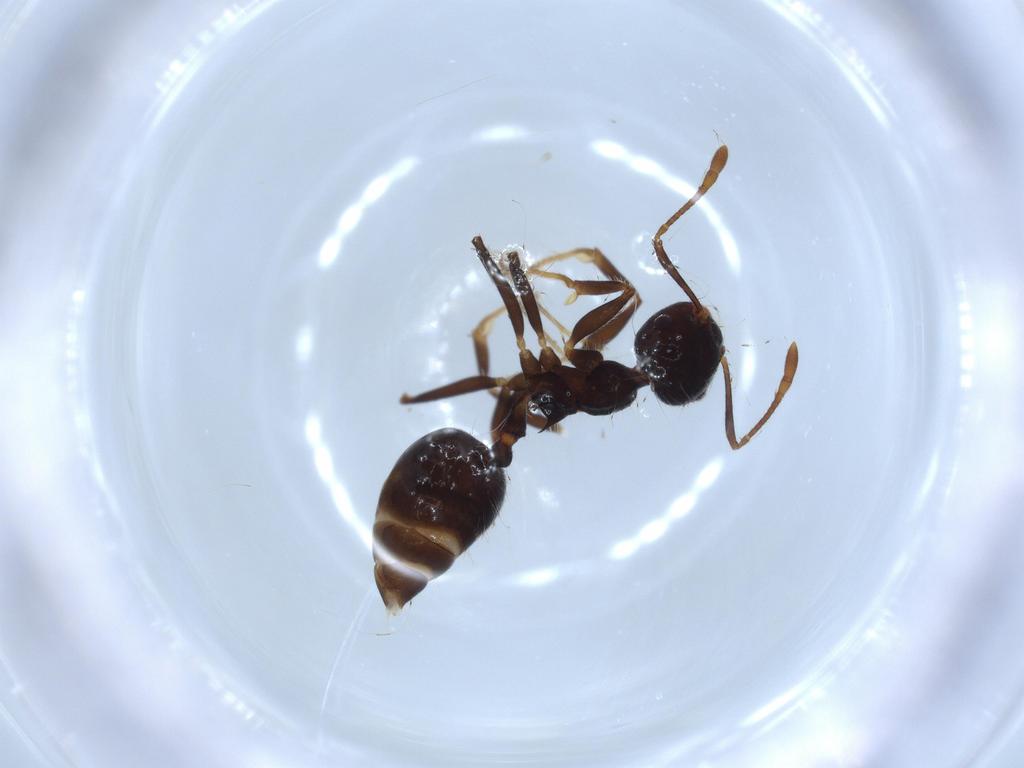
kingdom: Animalia
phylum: Arthropoda
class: Insecta
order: Hymenoptera
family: Formicidae
